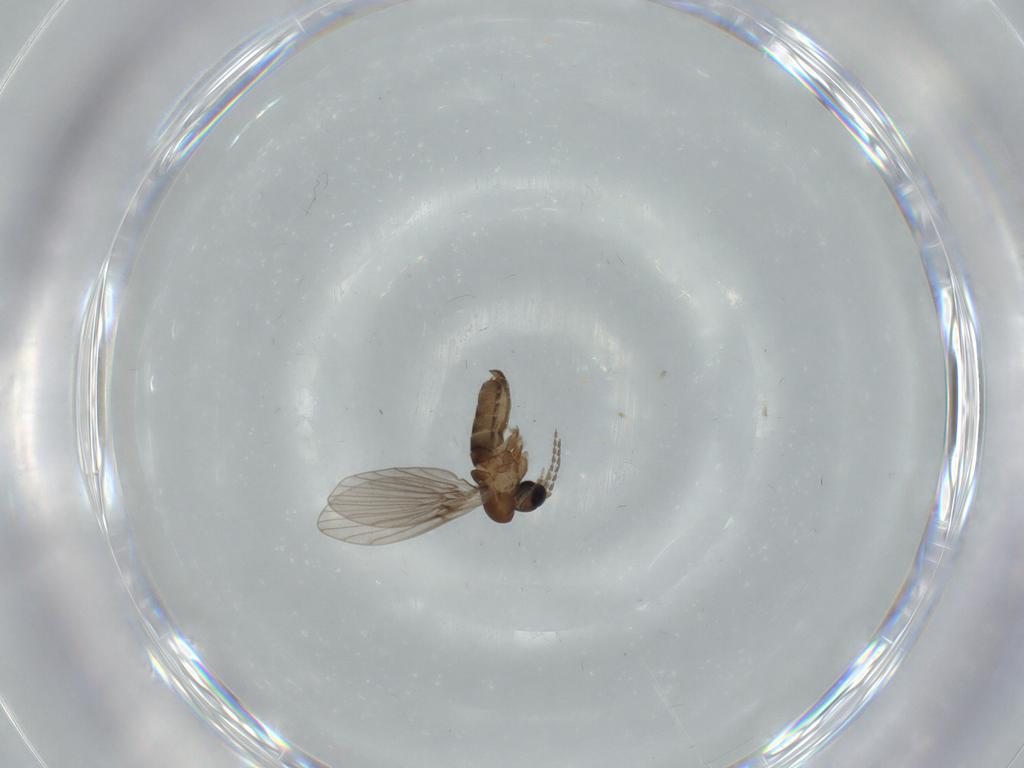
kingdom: Animalia
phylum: Arthropoda
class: Insecta
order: Diptera
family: Psychodidae
